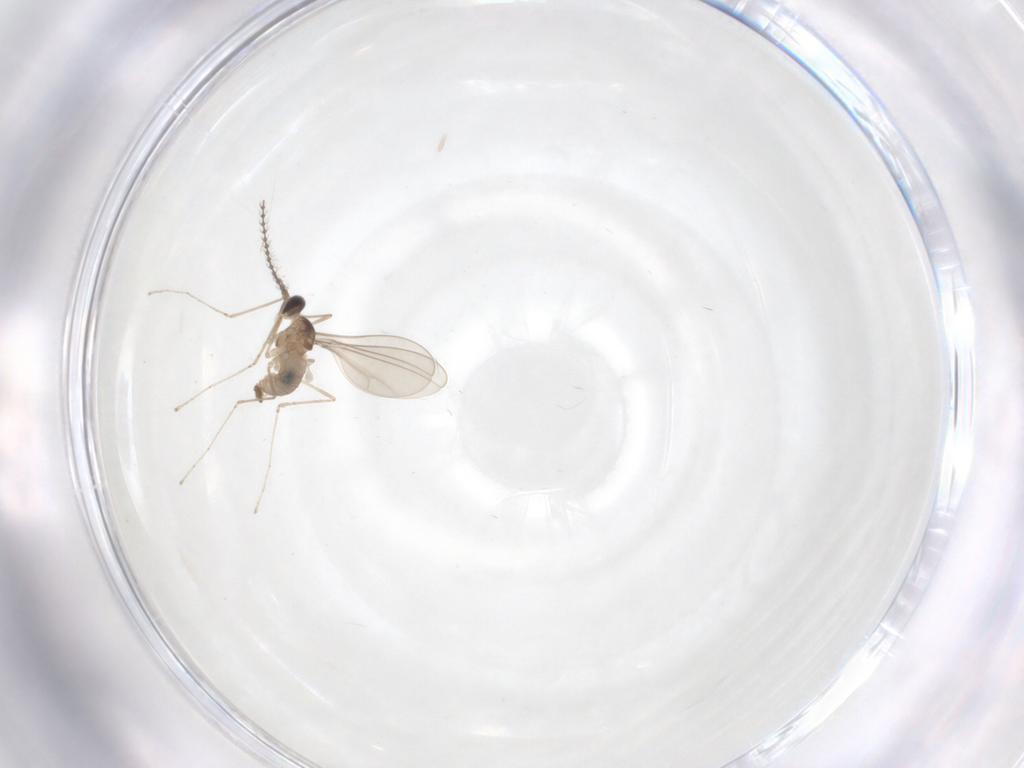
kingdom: Animalia
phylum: Arthropoda
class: Insecta
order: Diptera
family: Cecidomyiidae
